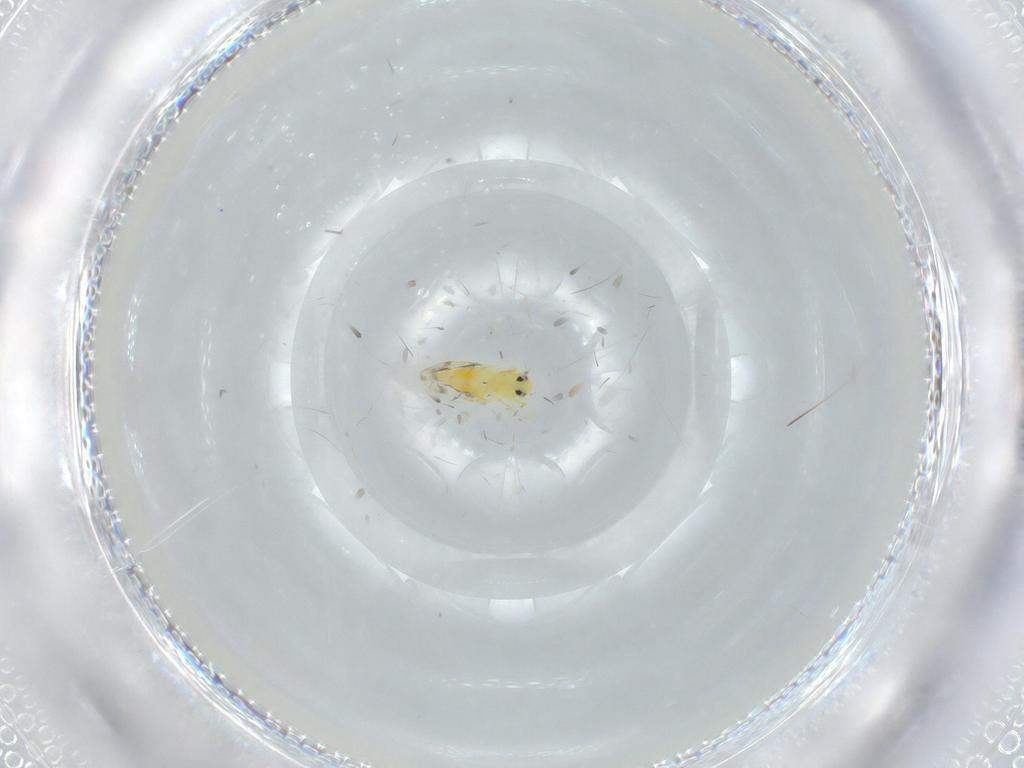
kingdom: Animalia
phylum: Arthropoda
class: Insecta
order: Hemiptera
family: Aleyrodidae
